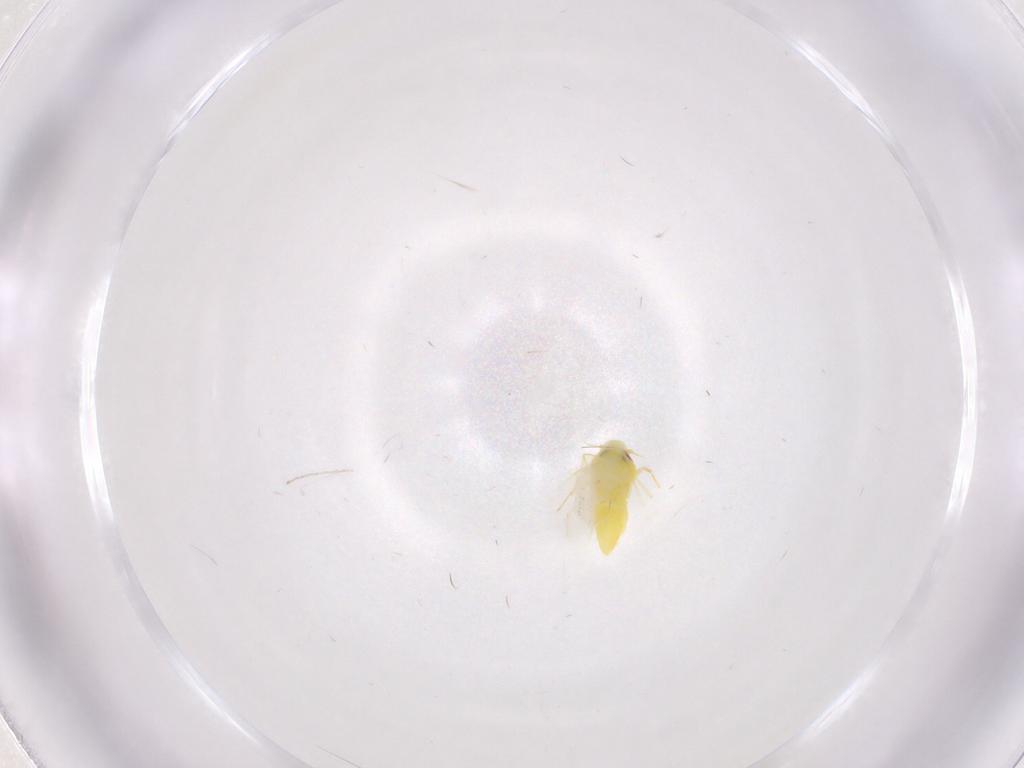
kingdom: Animalia
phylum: Arthropoda
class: Insecta
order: Hemiptera
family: Aleyrodidae
